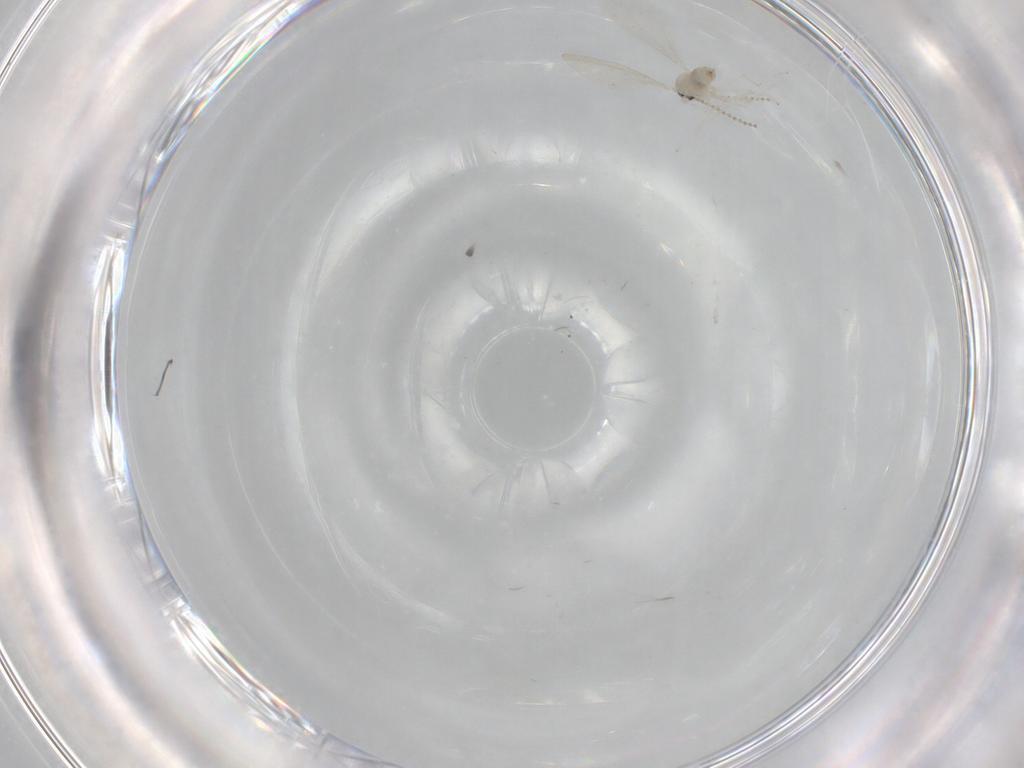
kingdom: Animalia
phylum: Arthropoda
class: Insecta
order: Diptera
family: Cecidomyiidae
